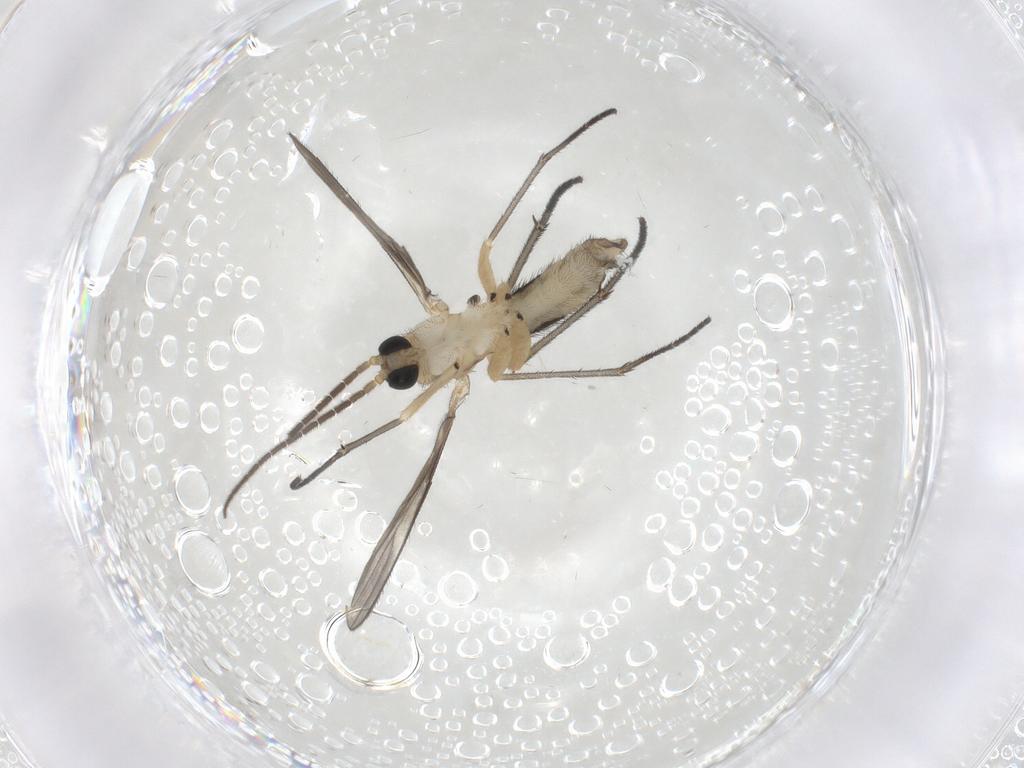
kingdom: Animalia
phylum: Arthropoda
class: Insecta
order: Diptera
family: Sciaridae
